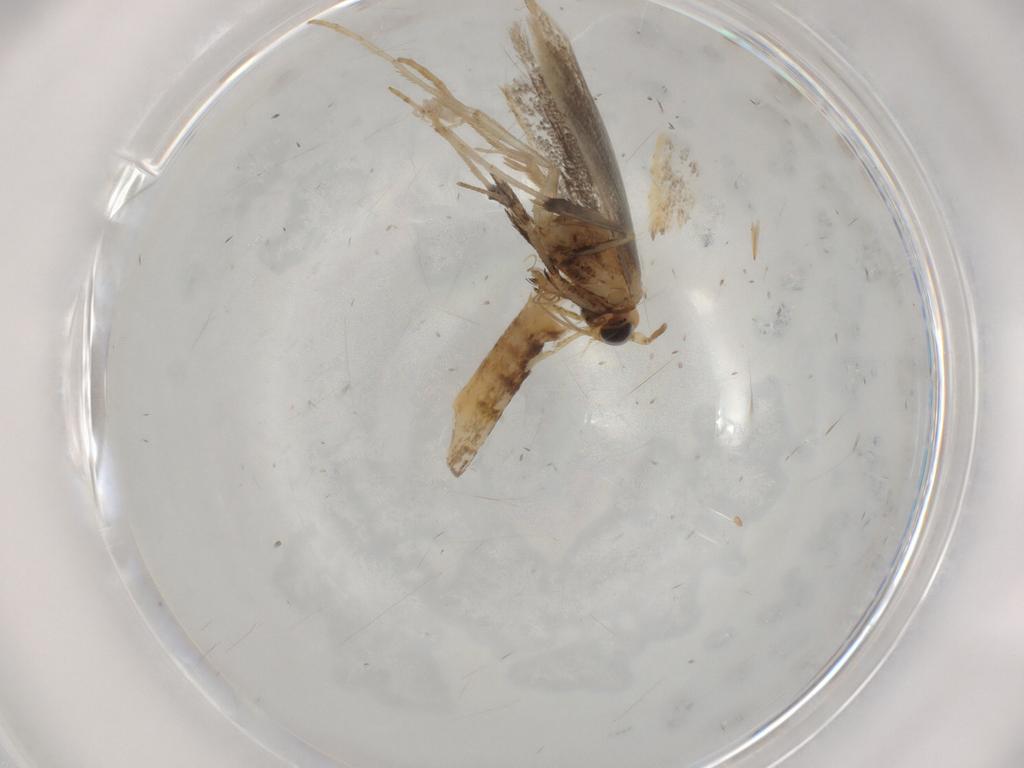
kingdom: Animalia
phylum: Arthropoda
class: Insecta
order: Lepidoptera
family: Gracillariidae
